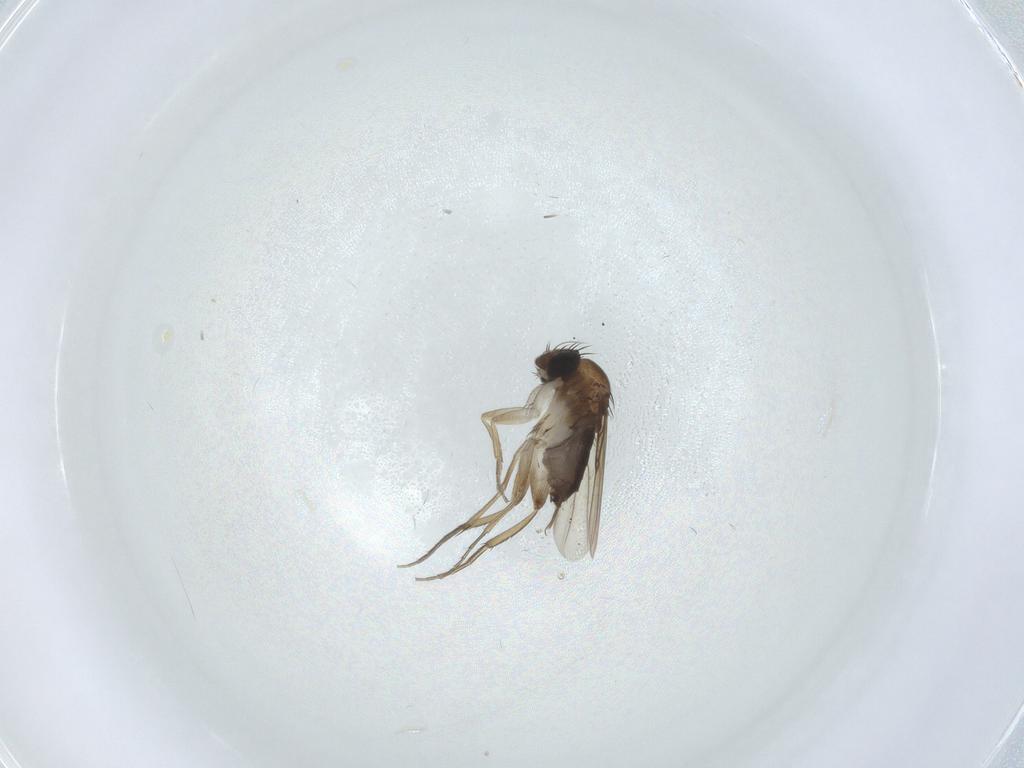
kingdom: Animalia
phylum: Arthropoda
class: Insecta
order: Diptera
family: Phoridae
